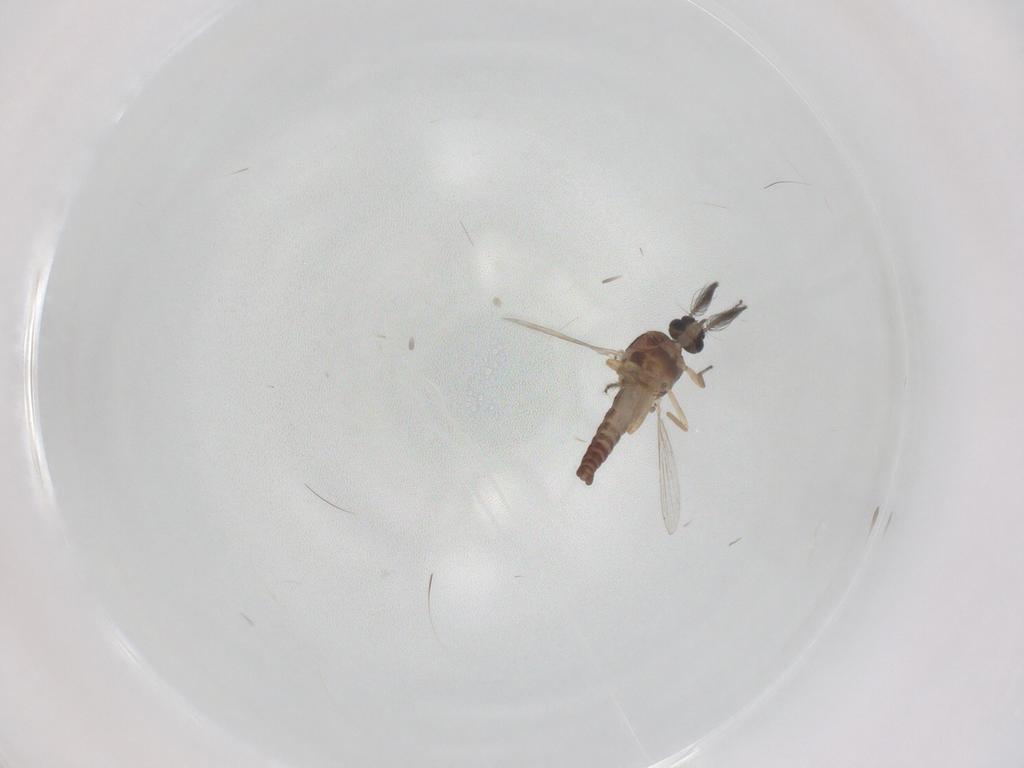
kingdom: Animalia
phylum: Arthropoda
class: Insecta
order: Diptera
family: Ceratopogonidae
